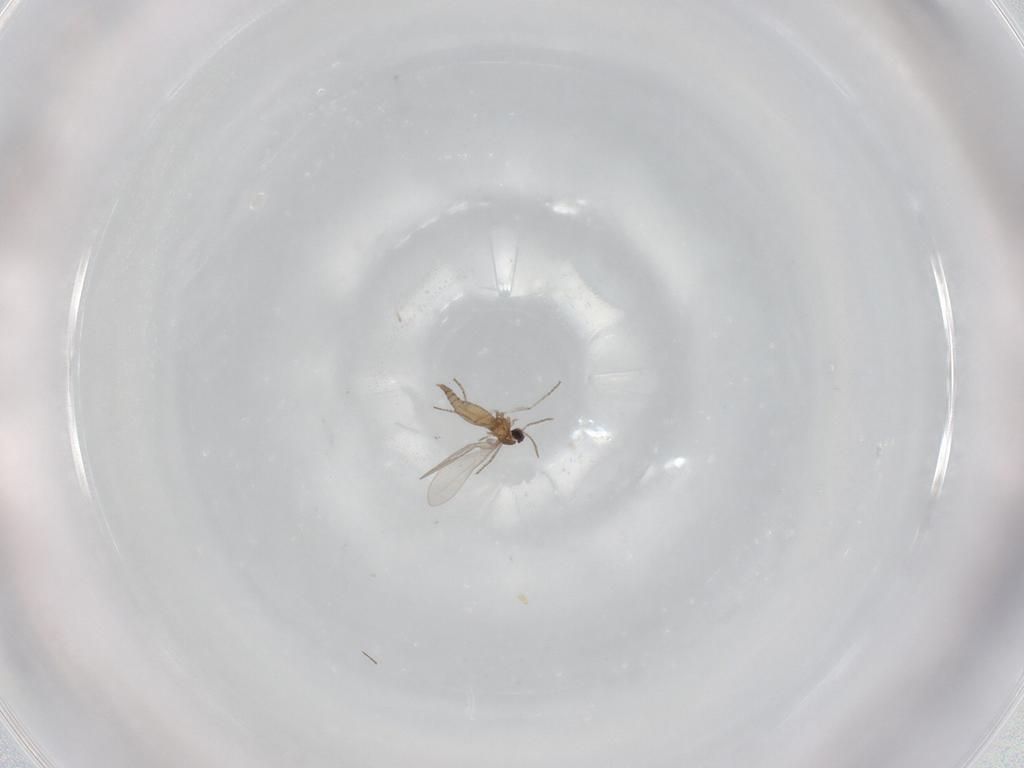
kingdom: Animalia
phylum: Arthropoda
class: Insecta
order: Diptera
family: Cecidomyiidae
